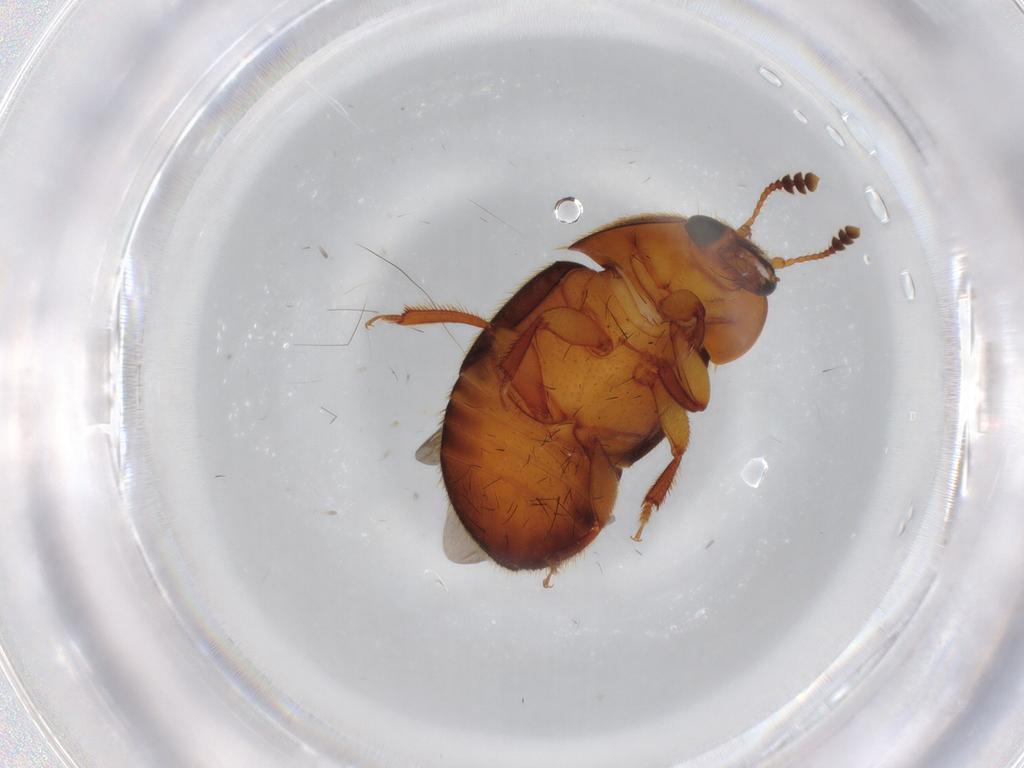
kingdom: Animalia
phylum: Arthropoda
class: Insecta
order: Coleoptera
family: Nitidulidae
